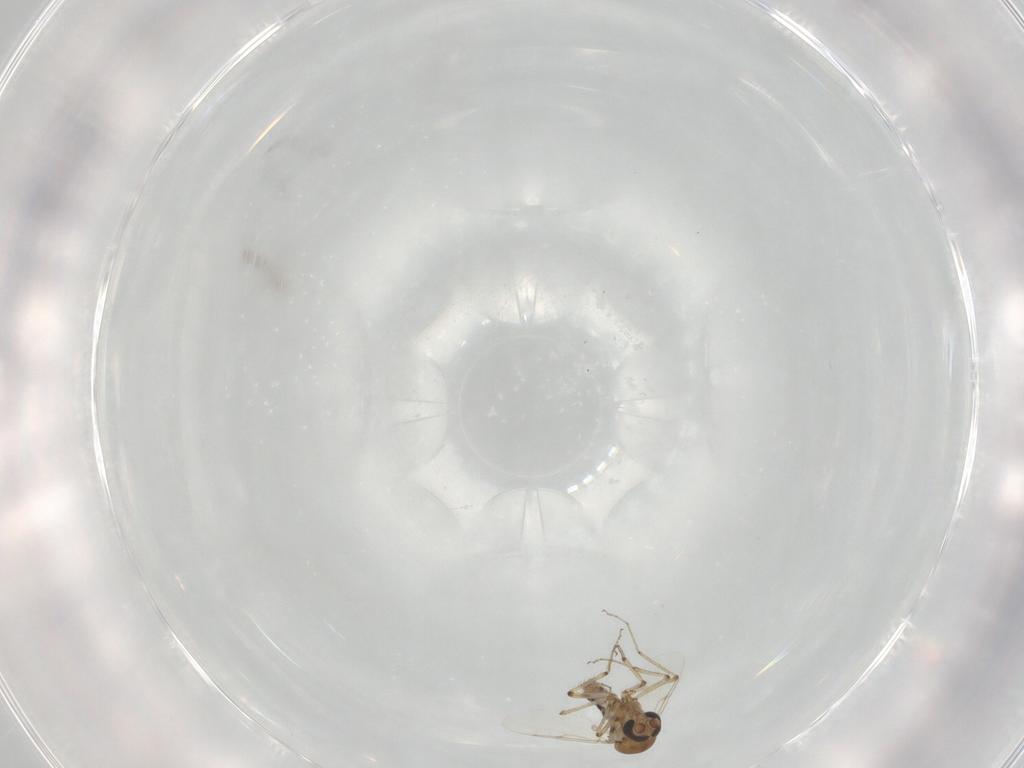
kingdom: Animalia
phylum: Arthropoda
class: Insecta
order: Diptera
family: Ceratopogonidae
